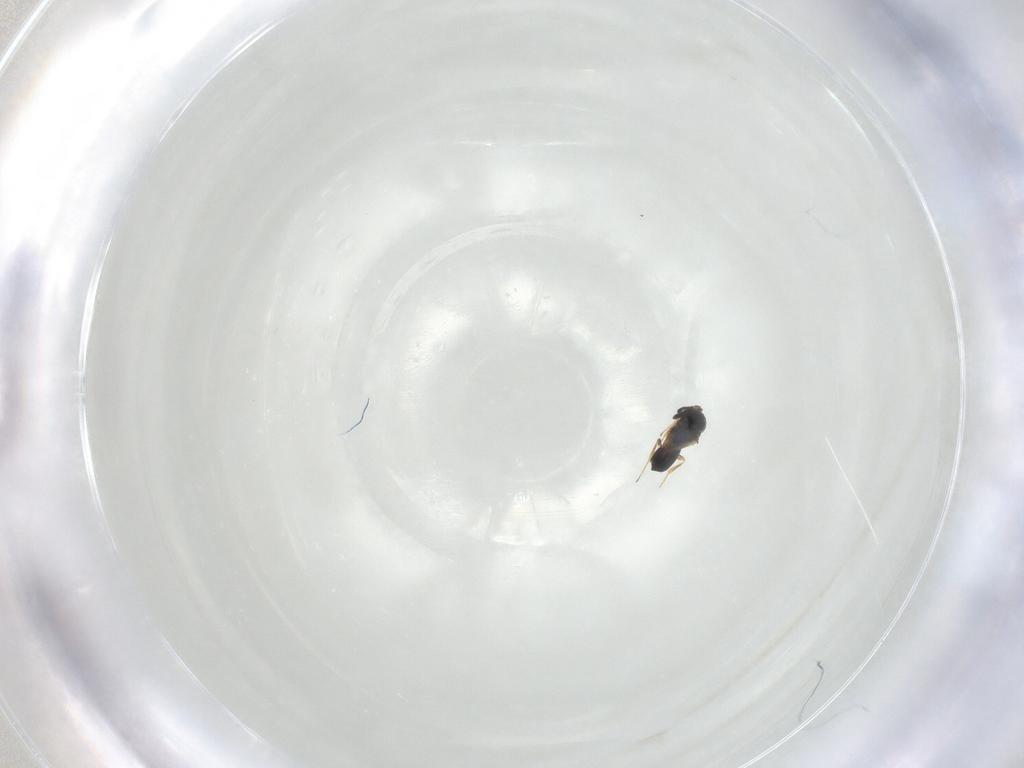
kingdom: Animalia
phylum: Arthropoda
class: Insecta
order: Hymenoptera
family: Scelionidae
